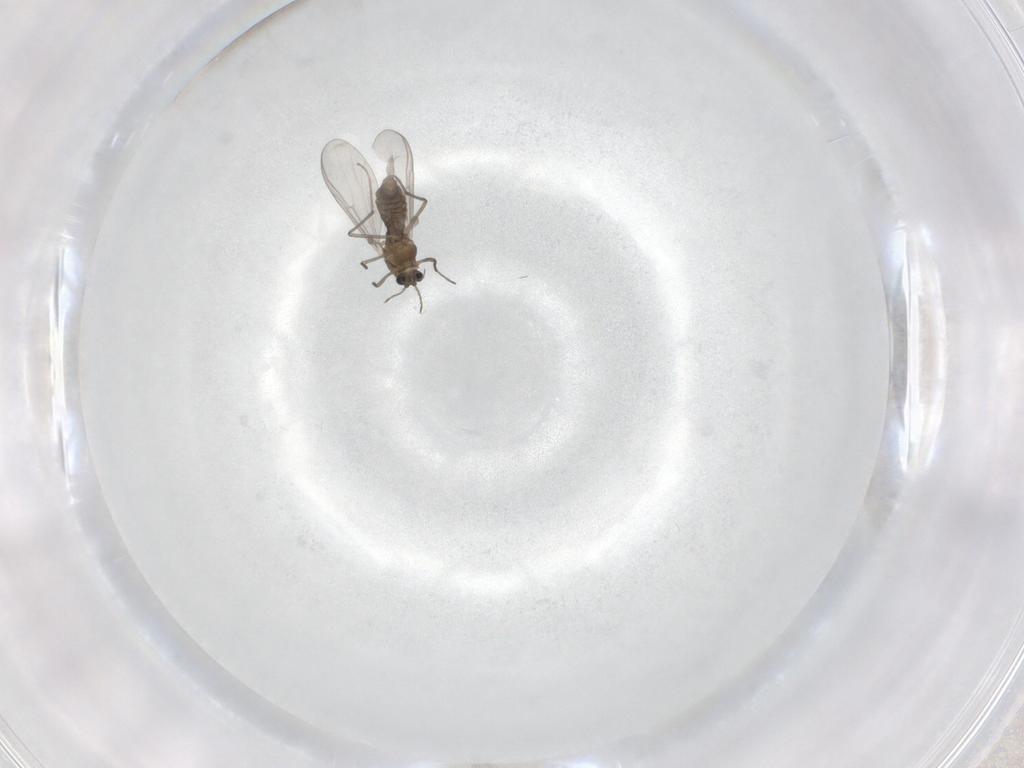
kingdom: Animalia
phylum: Arthropoda
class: Insecta
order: Diptera
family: Chironomidae
